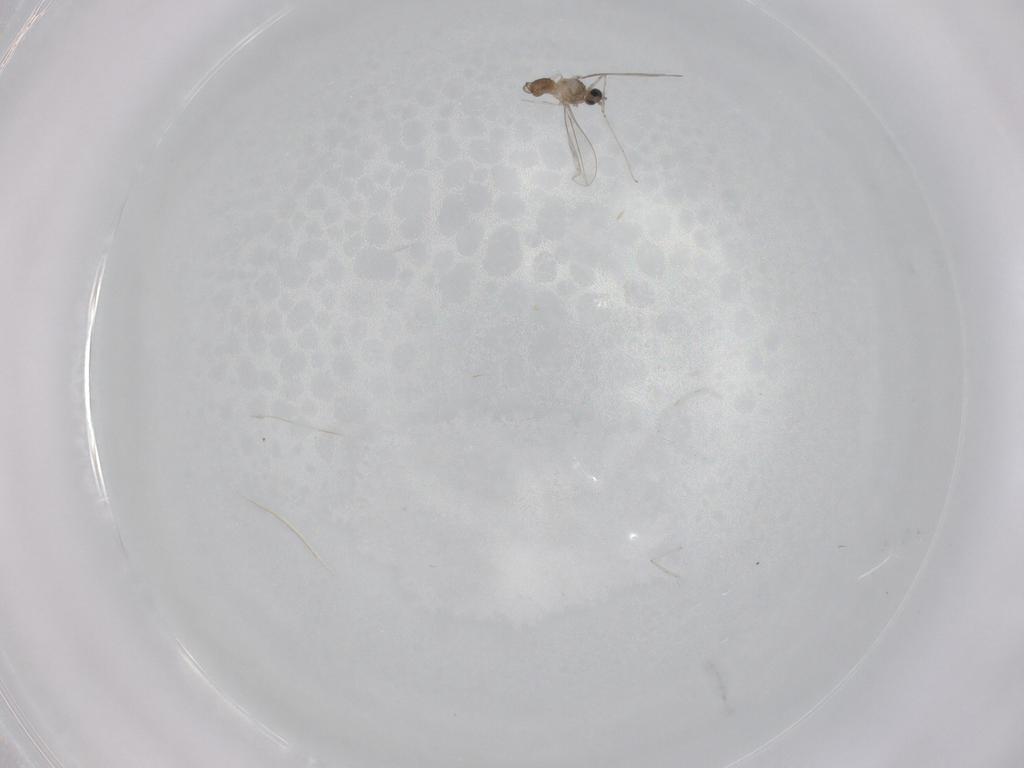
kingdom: Animalia
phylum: Arthropoda
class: Insecta
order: Diptera
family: Cecidomyiidae
